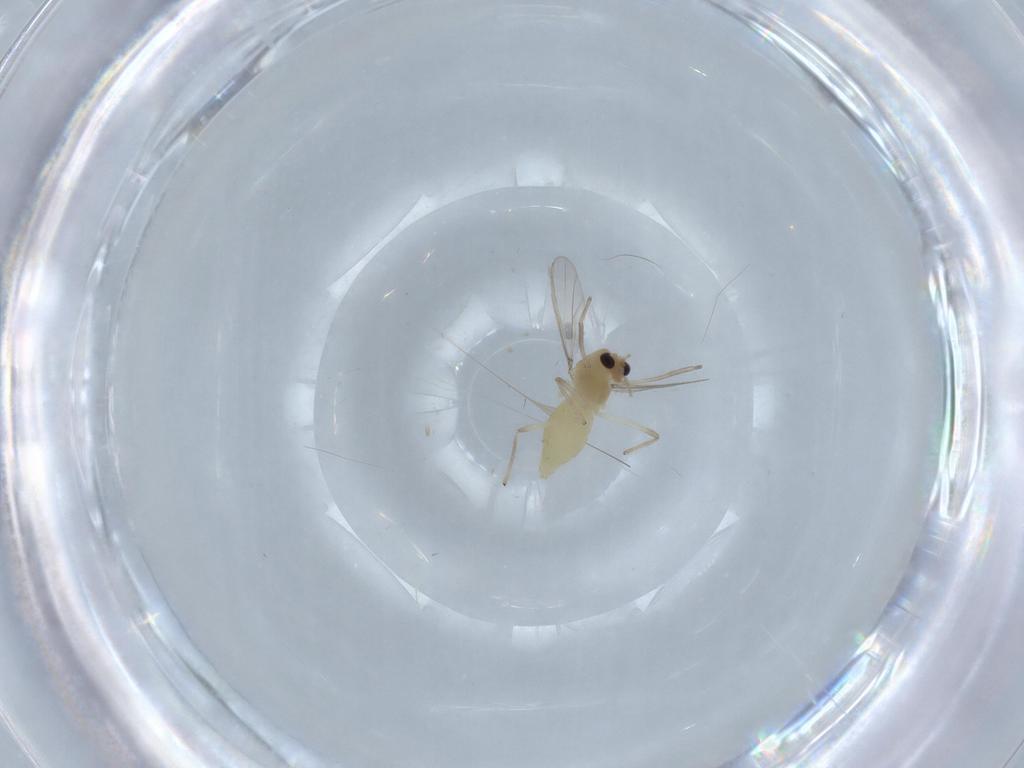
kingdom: Animalia
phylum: Arthropoda
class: Insecta
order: Diptera
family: Chironomidae
